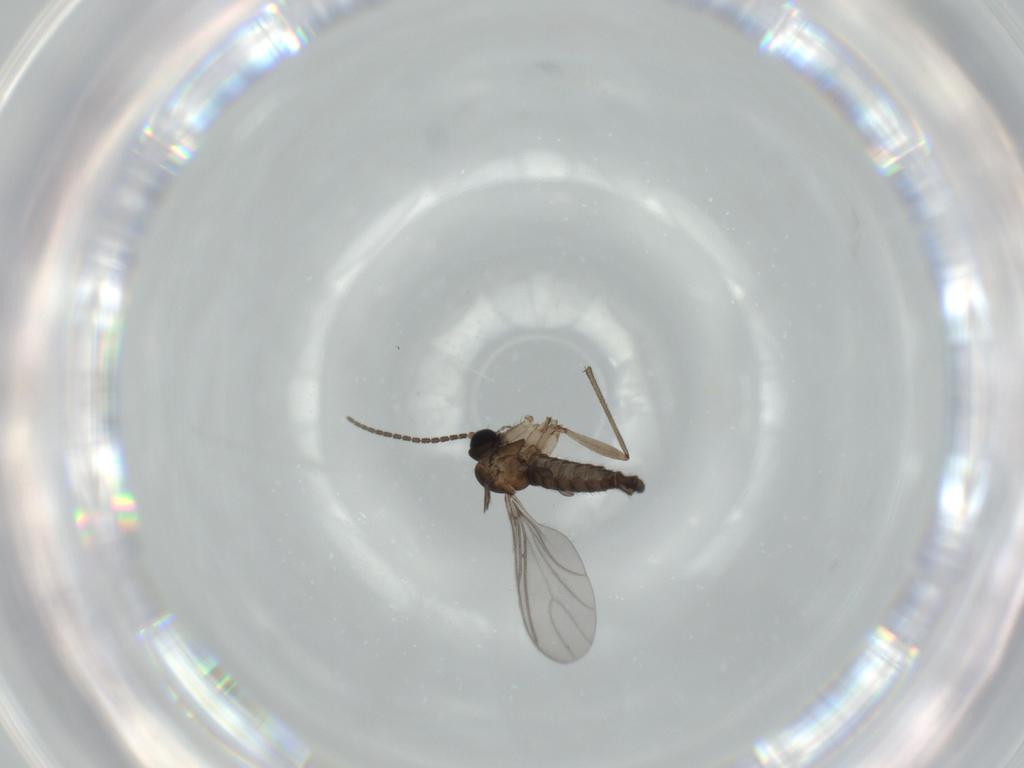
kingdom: Animalia
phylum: Arthropoda
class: Insecta
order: Diptera
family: Sciaridae
